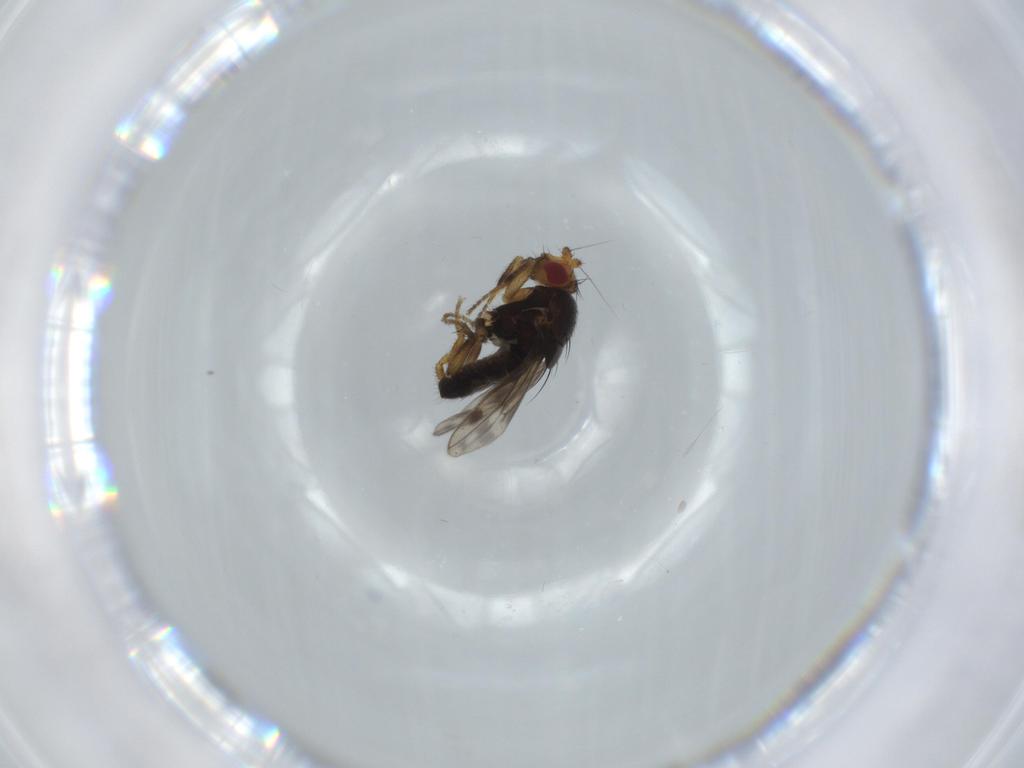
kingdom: Animalia
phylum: Arthropoda
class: Insecta
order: Diptera
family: Sphaeroceridae
